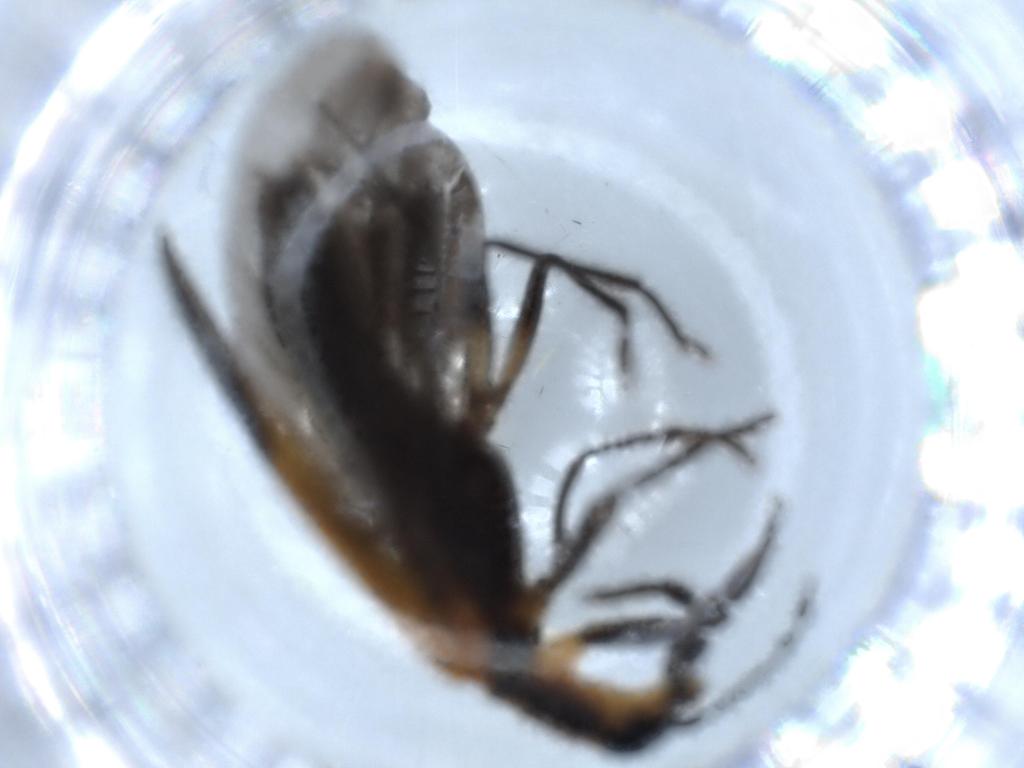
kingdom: Animalia
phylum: Arthropoda
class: Insecta
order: Coleoptera
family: Cleridae
